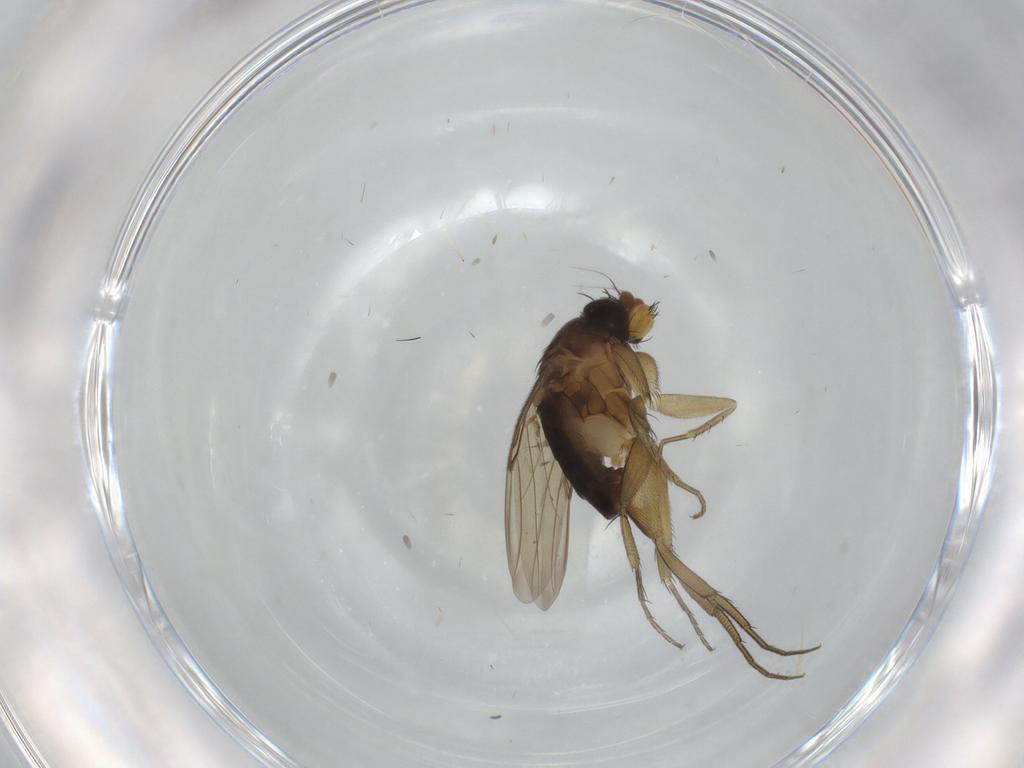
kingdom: Animalia
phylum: Arthropoda
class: Insecta
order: Diptera
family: Phoridae
